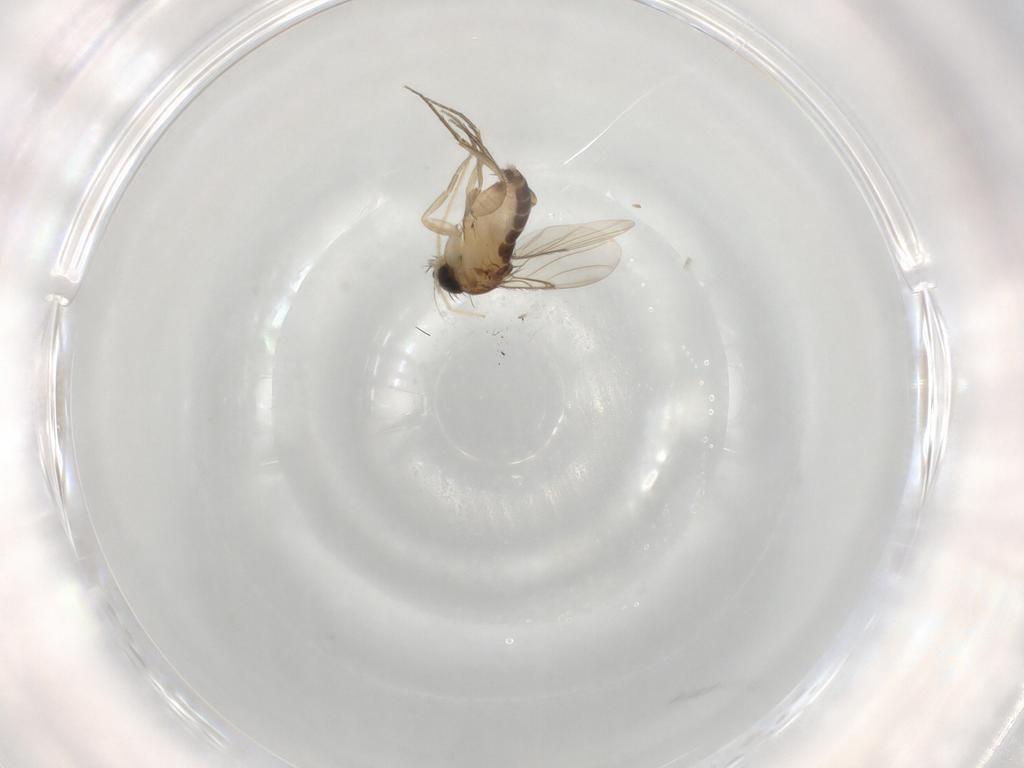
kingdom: Animalia
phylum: Arthropoda
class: Insecta
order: Diptera
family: Phoridae
